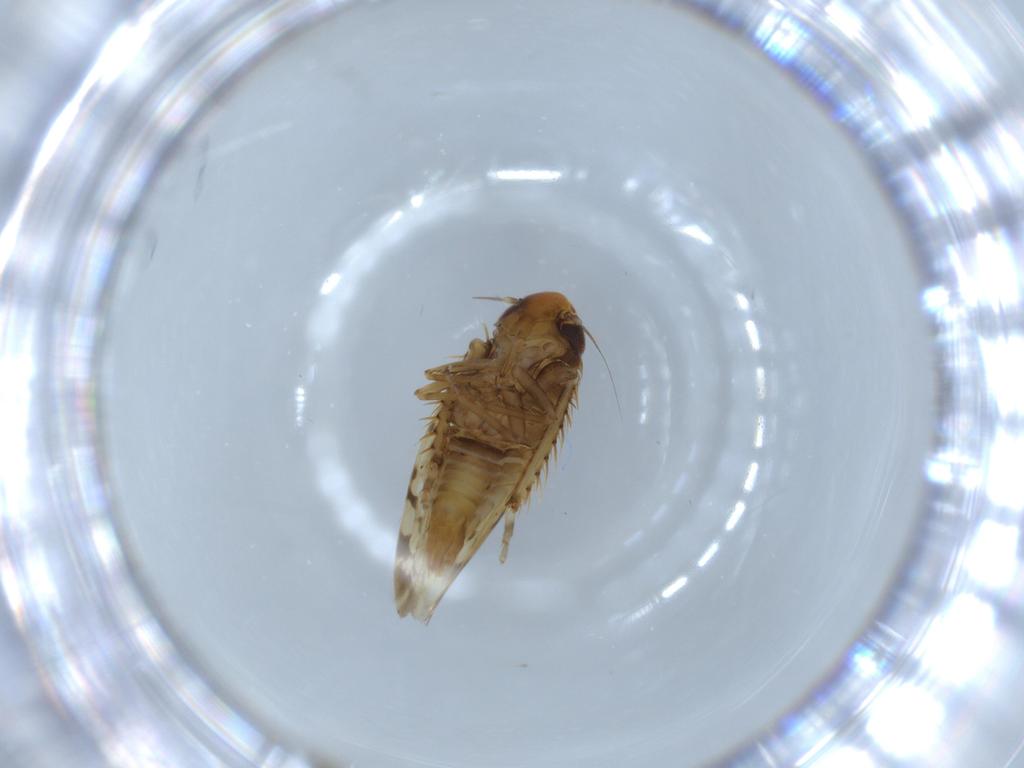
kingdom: Animalia
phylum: Arthropoda
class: Insecta
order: Hemiptera
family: Cicadellidae
